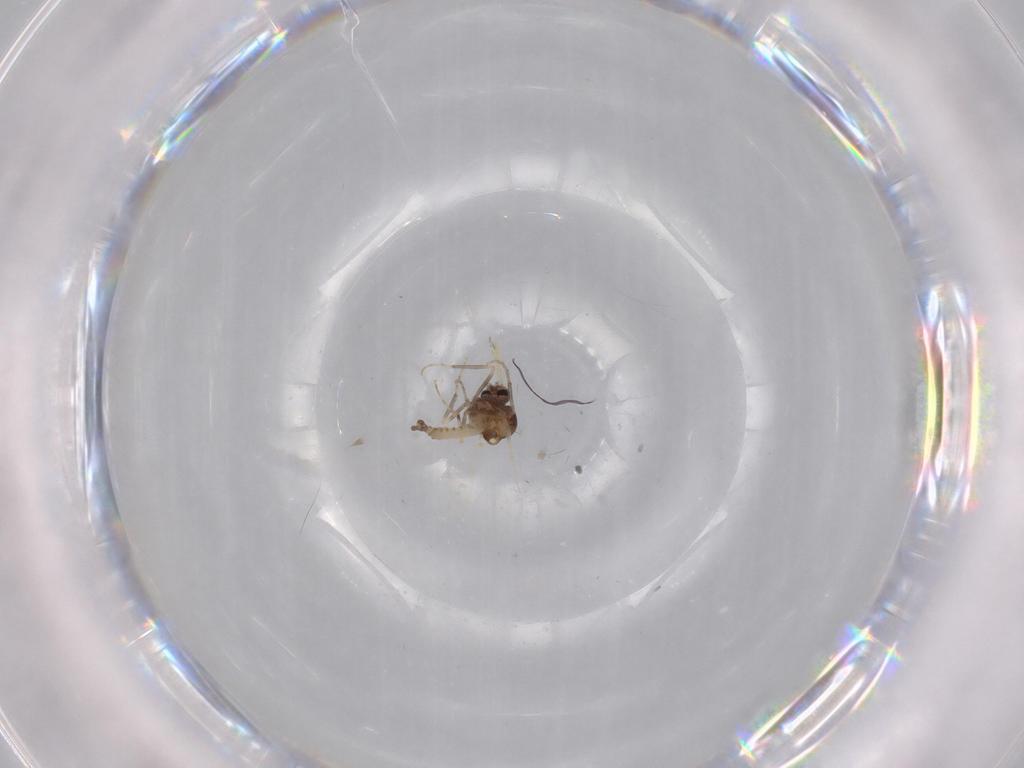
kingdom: Animalia
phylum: Arthropoda
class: Insecta
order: Diptera
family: Ceratopogonidae
